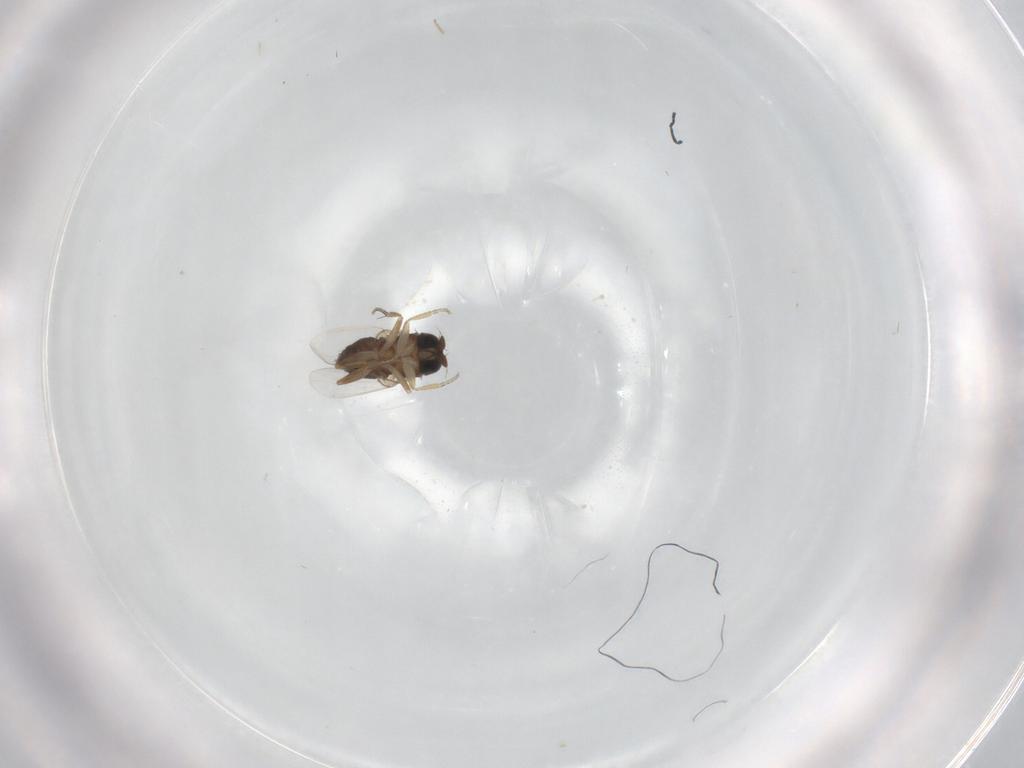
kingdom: Animalia
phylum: Arthropoda
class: Insecta
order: Diptera
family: Phoridae
